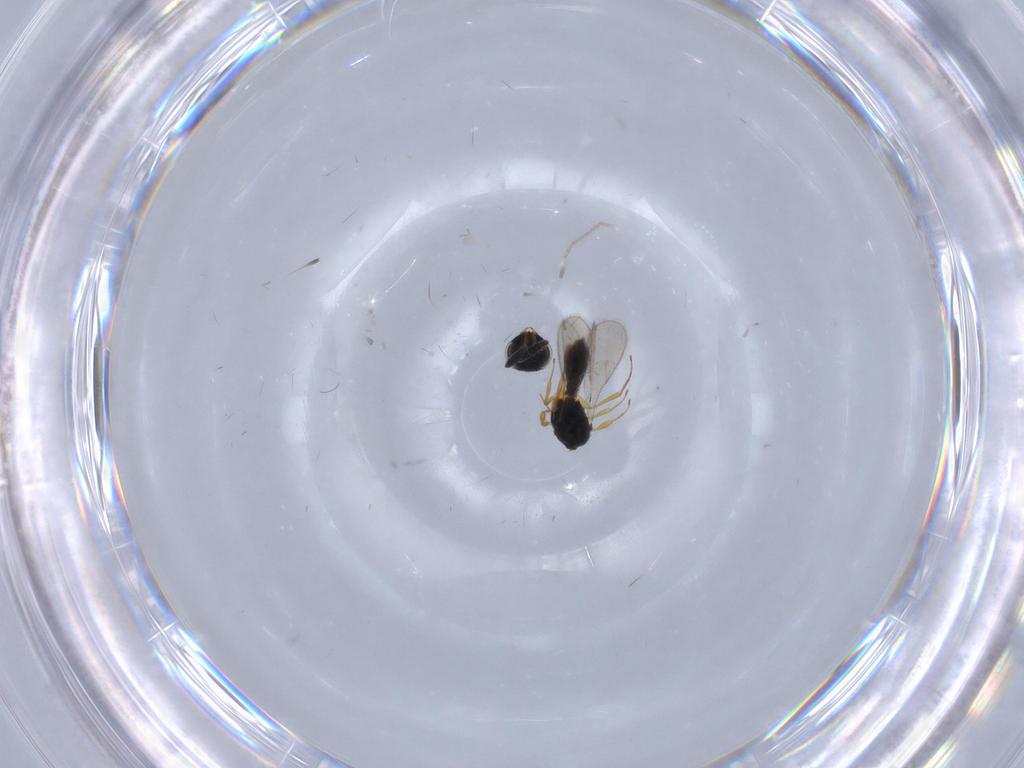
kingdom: Animalia
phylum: Arthropoda
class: Insecta
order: Hymenoptera
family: Scelionidae
